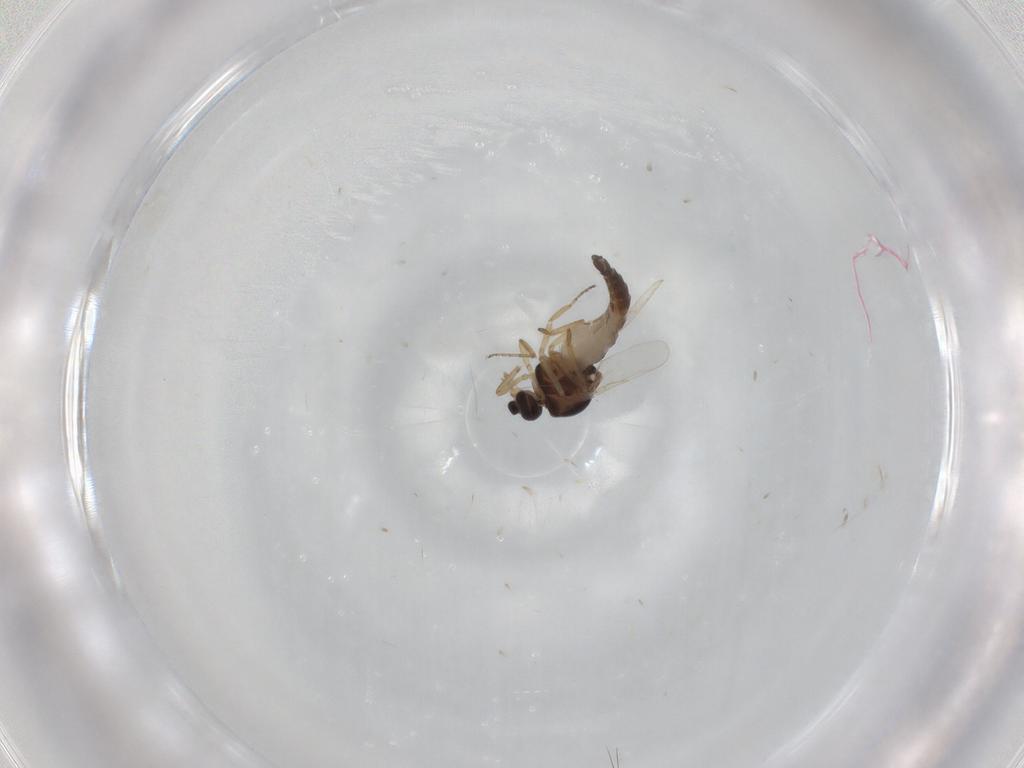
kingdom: Animalia
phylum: Arthropoda
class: Insecta
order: Diptera
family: Ceratopogonidae
